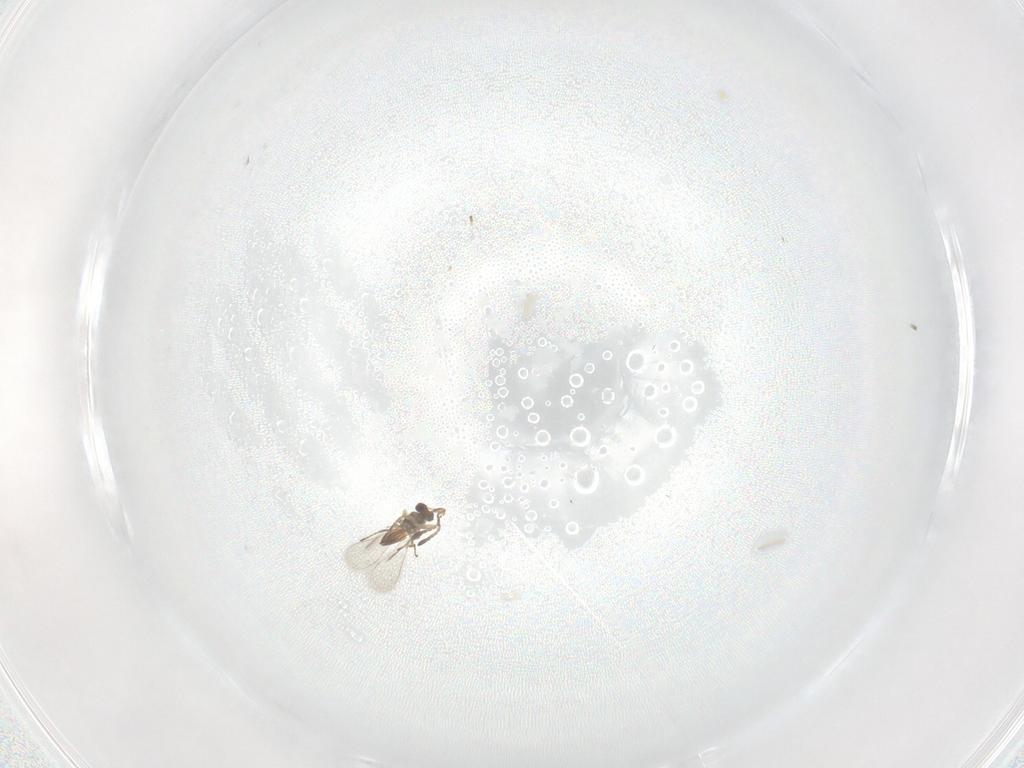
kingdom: Animalia
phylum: Arthropoda
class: Insecta
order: Hymenoptera
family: Mymaridae
